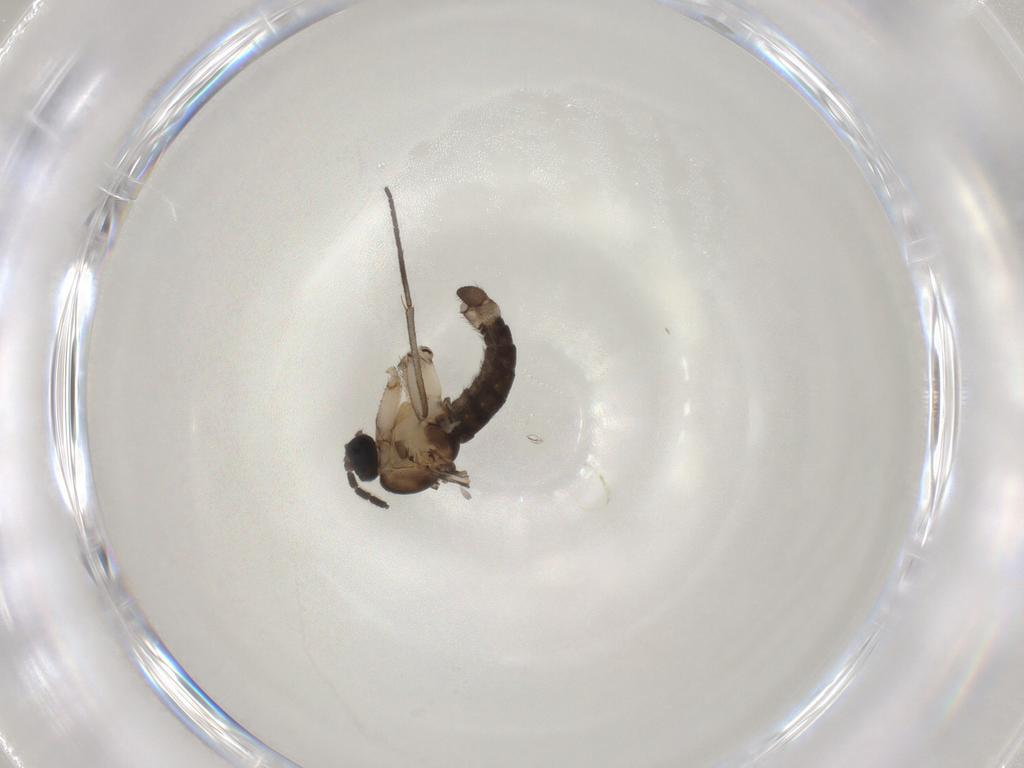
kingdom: Animalia
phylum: Arthropoda
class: Insecta
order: Diptera
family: Sciaridae
